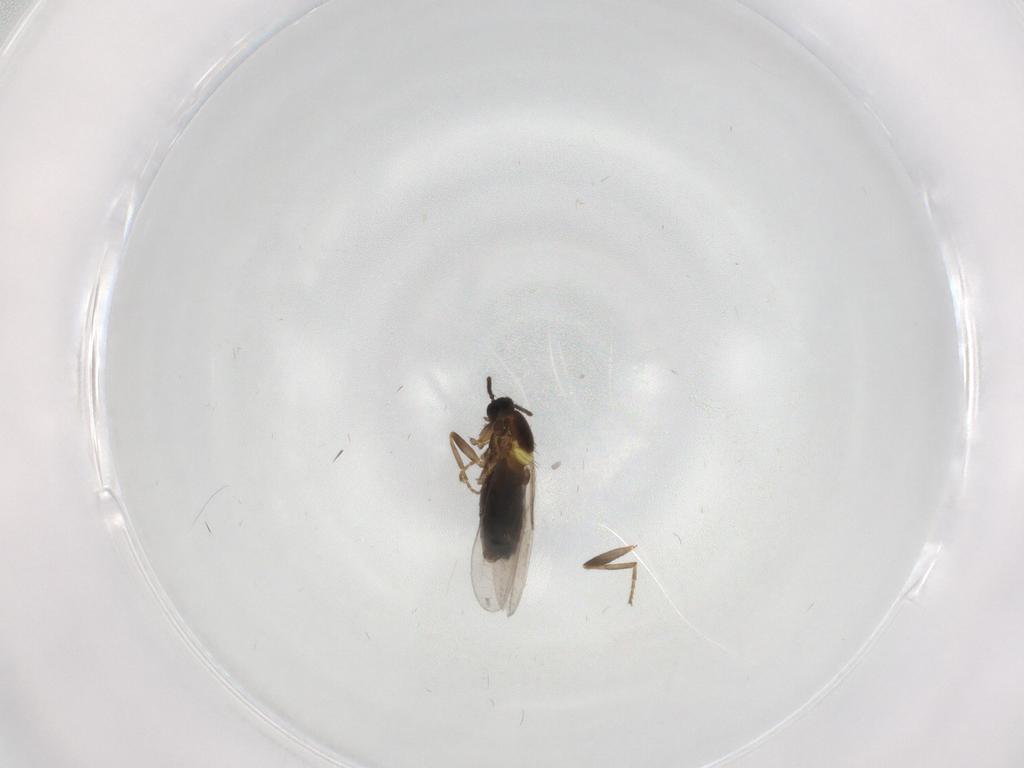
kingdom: Animalia
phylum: Arthropoda
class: Insecta
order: Diptera
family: Scatopsidae
